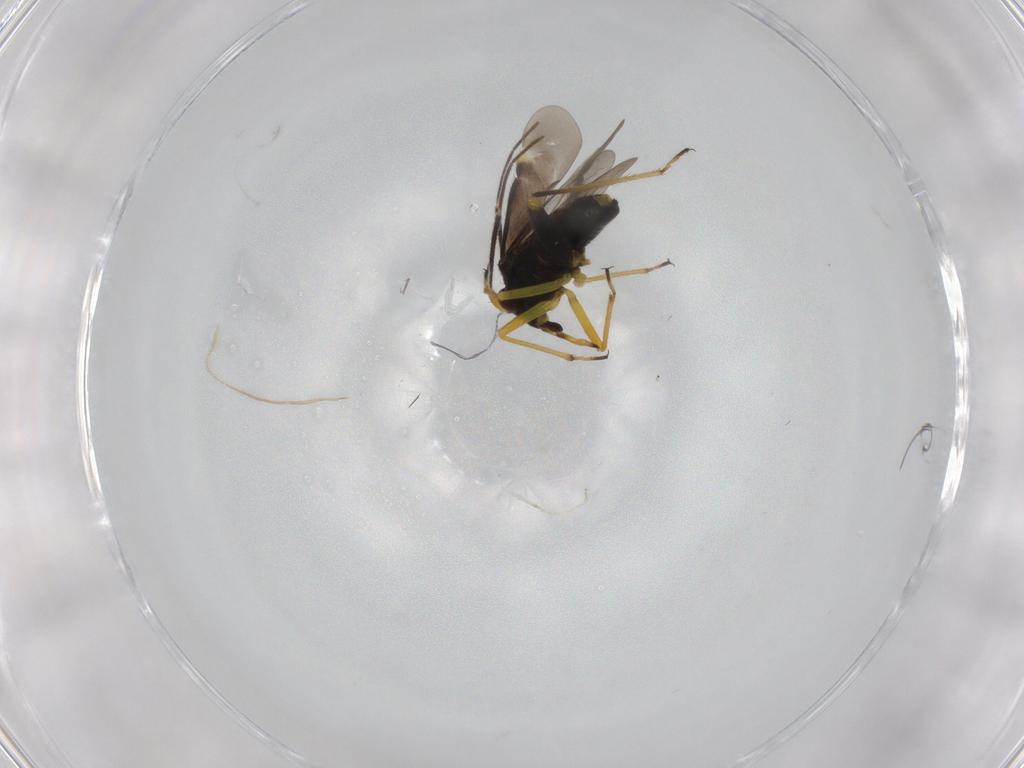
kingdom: Animalia
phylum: Arthropoda
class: Insecta
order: Hemiptera
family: Miridae
